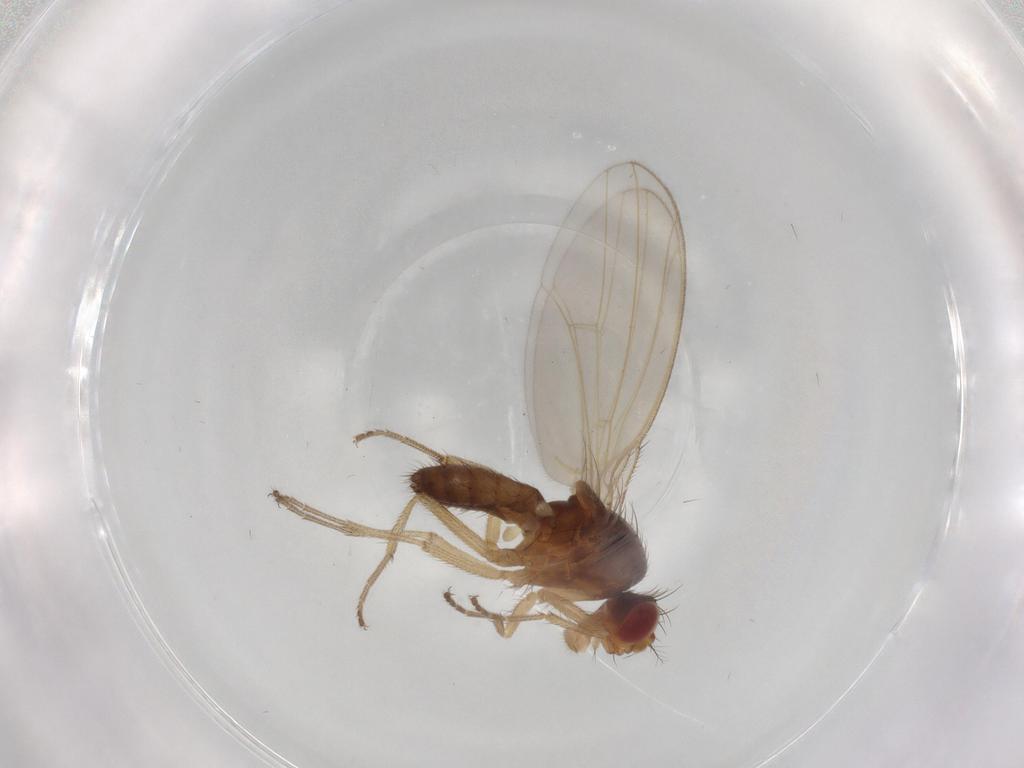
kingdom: Animalia
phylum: Arthropoda
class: Insecta
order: Diptera
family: Drosophilidae
